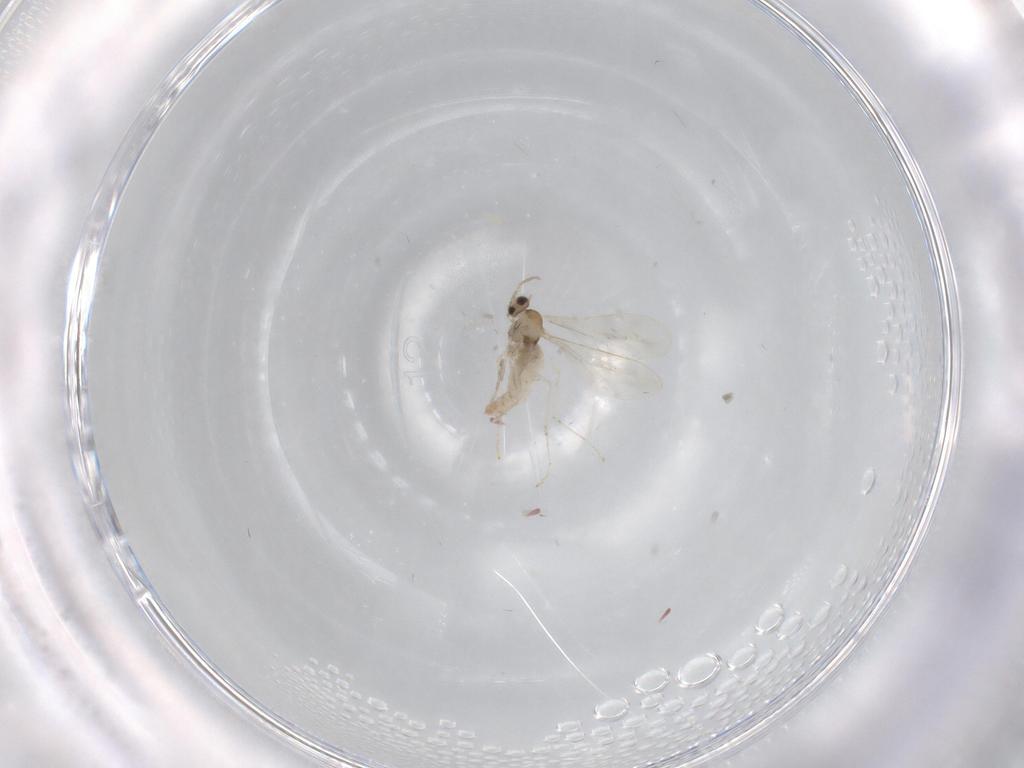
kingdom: Animalia
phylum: Arthropoda
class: Insecta
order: Diptera
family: Cecidomyiidae
